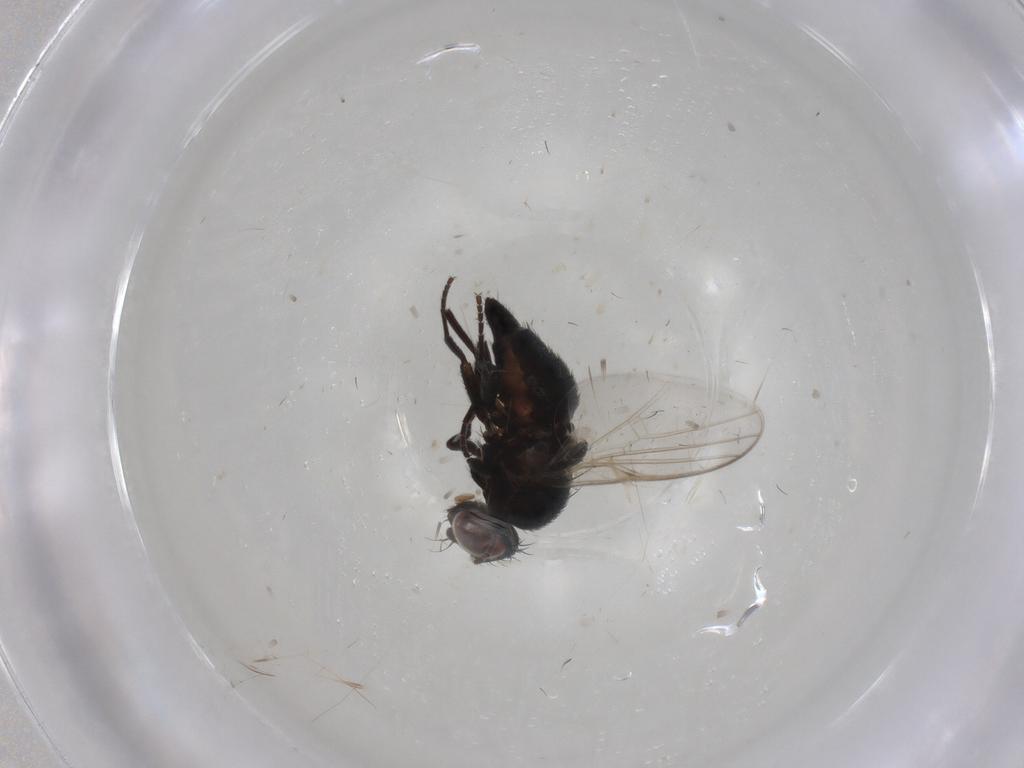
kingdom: Animalia
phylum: Arthropoda
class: Insecta
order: Diptera
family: Agromyzidae
